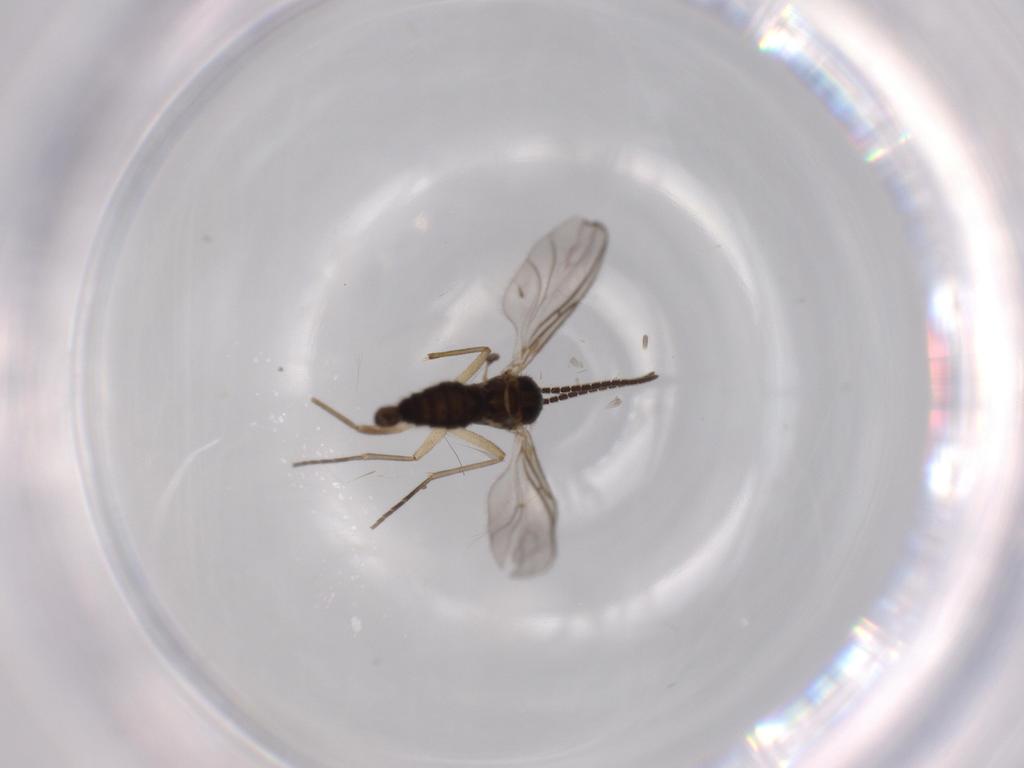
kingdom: Animalia
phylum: Arthropoda
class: Insecta
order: Diptera
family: Sciaridae
